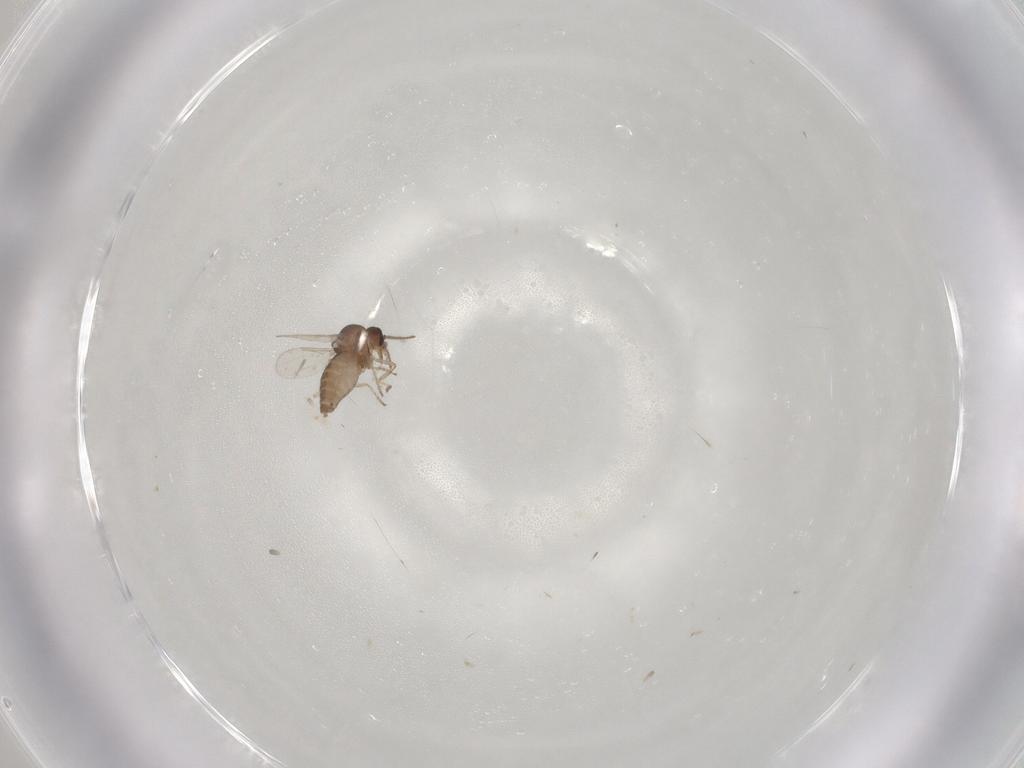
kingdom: Animalia
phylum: Arthropoda
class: Insecta
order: Diptera
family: Ceratopogonidae
